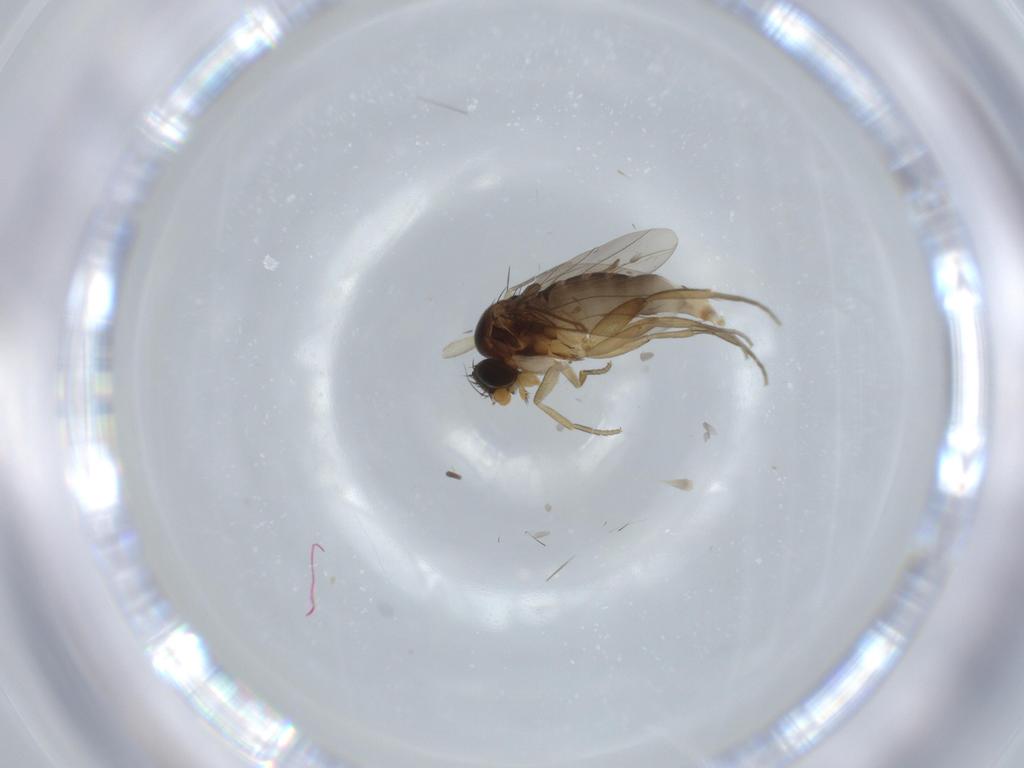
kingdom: Animalia
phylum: Arthropoda
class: Insecta
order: Diptera
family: Phoridae
